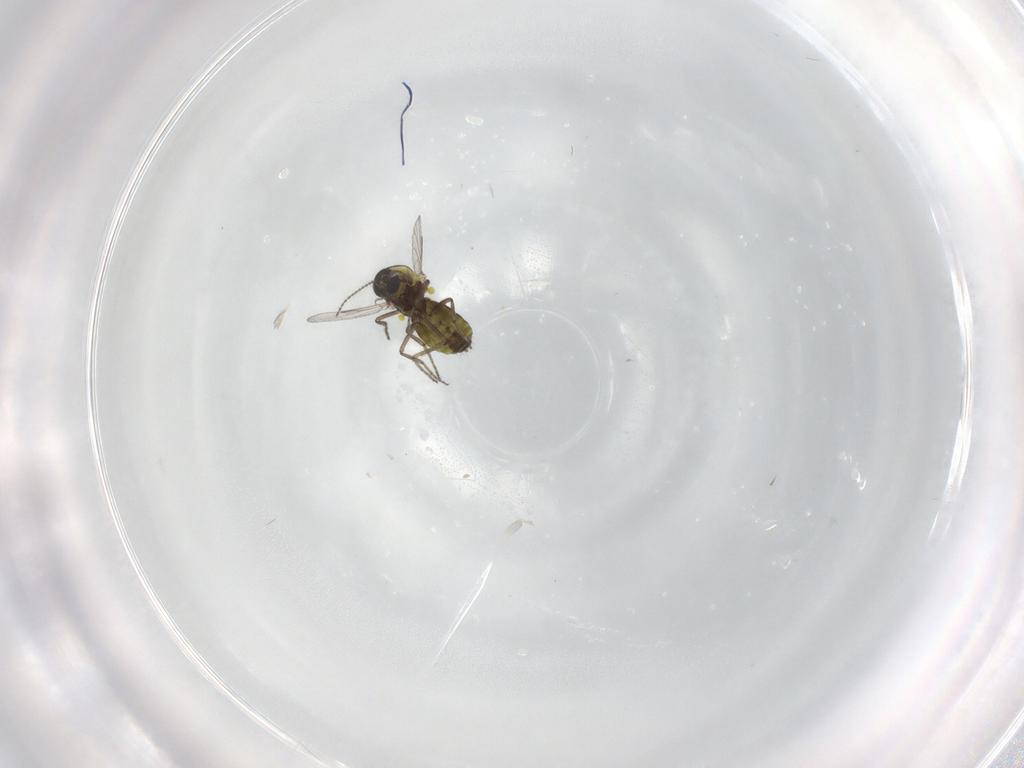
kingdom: Animalia
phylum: Arthropoda
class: Insecta
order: Diptera
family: Ceratopogonidae
